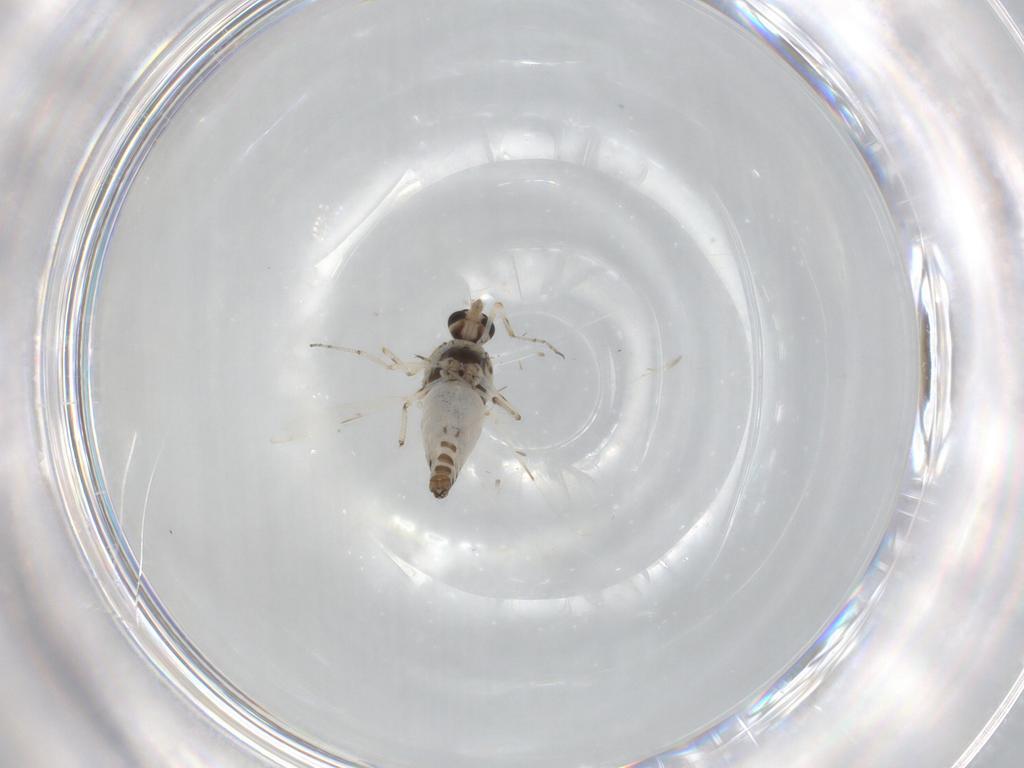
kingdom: Animalia
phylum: Arthropoda
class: Insecta
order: Diptera
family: Ceratopogonidae
